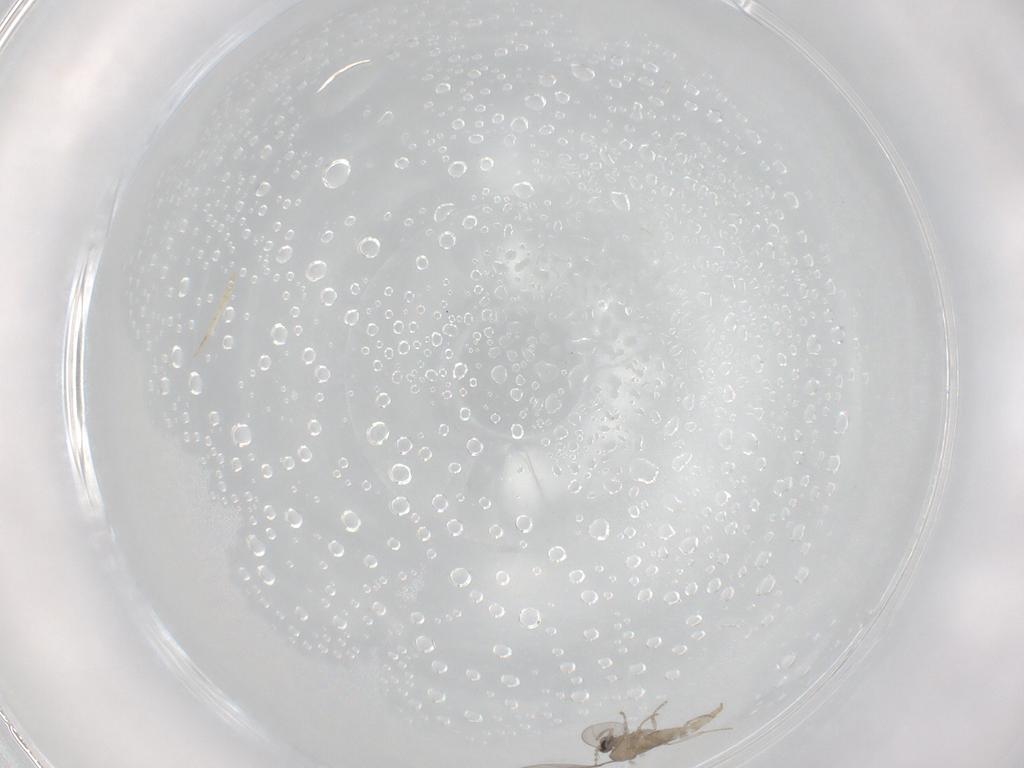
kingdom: Animalia
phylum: Arthropoda
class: Insecta
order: Diptera
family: Cecidomyiidae
